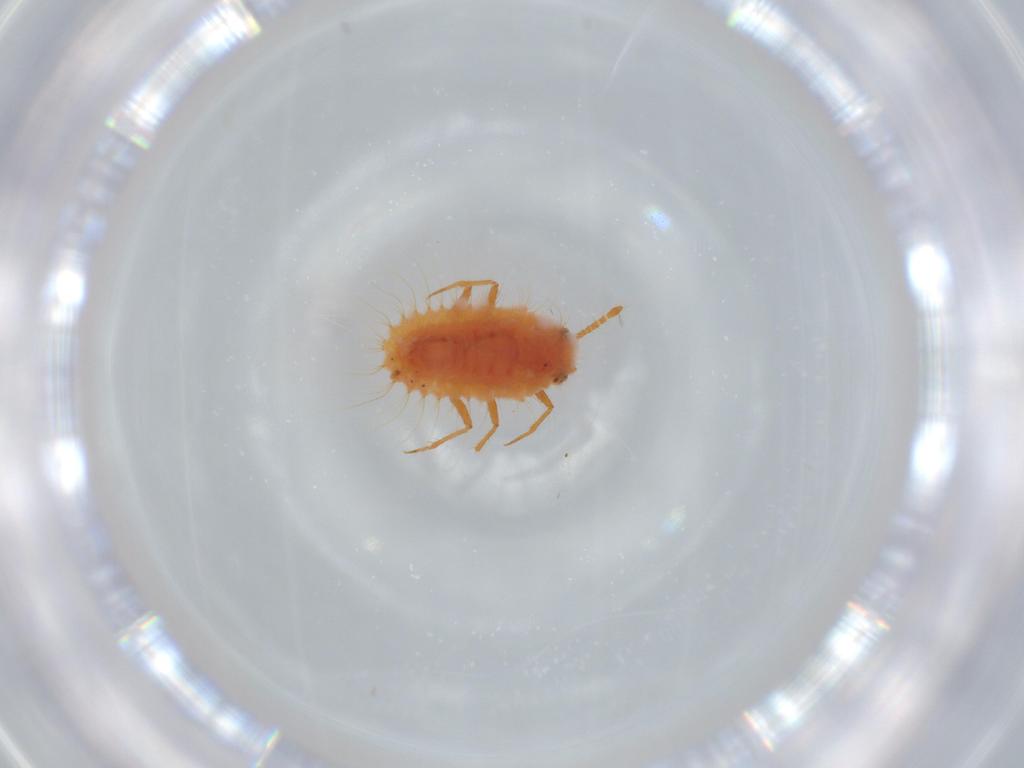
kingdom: Animalia
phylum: Arthropoda
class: Insecta
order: Hemiptera
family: Coccoidea_incertae_sedis
